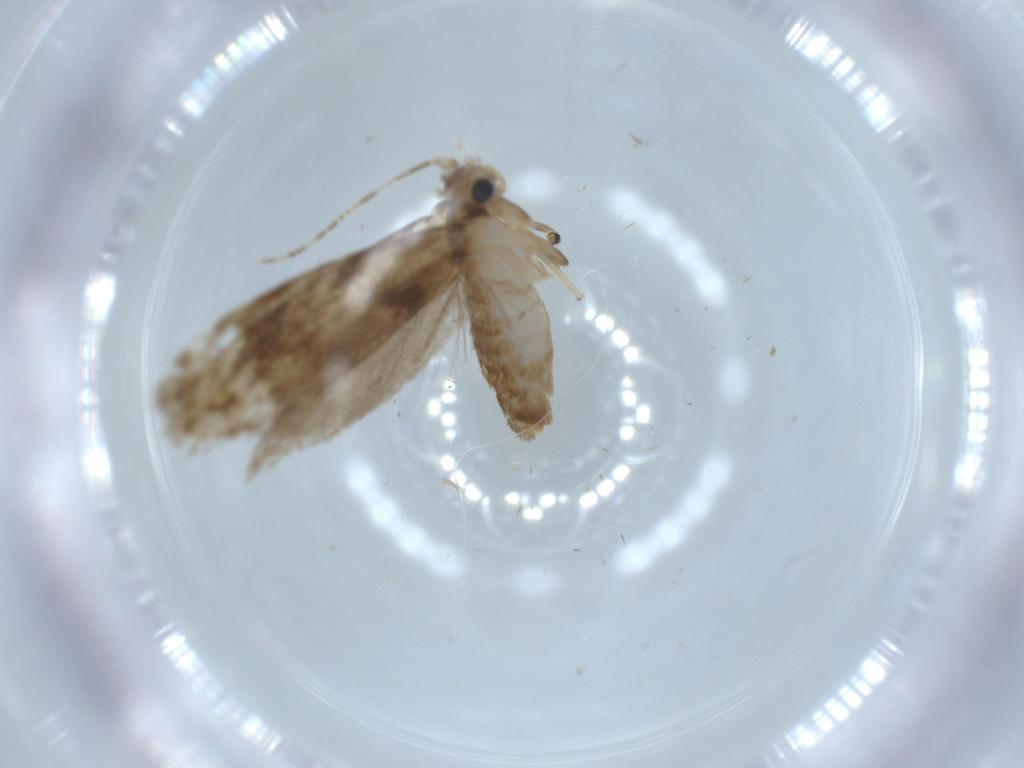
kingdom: Animalia
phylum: Arthropoda
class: Insecta
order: Lepidoptera
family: Tineidae
